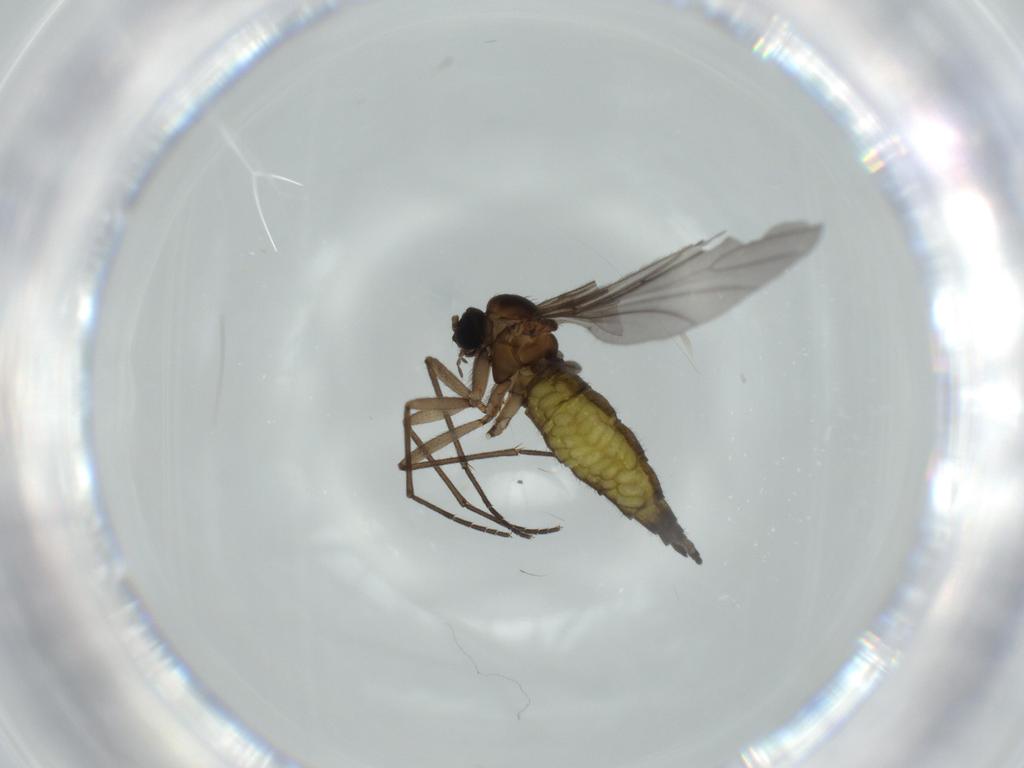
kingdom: Animalia
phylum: Arthropoda
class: Insecta
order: Diptera
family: Sciaridae
